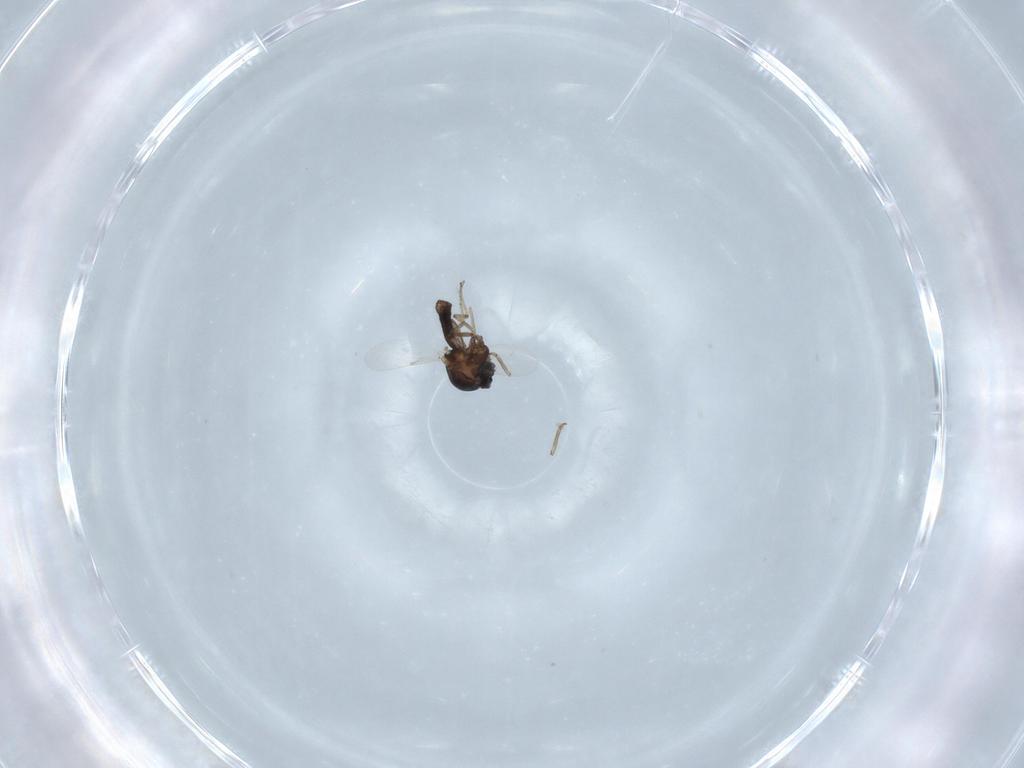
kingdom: Animalia
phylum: Arthropoda
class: Insecta
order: Diptera
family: Ceratopogonidae
